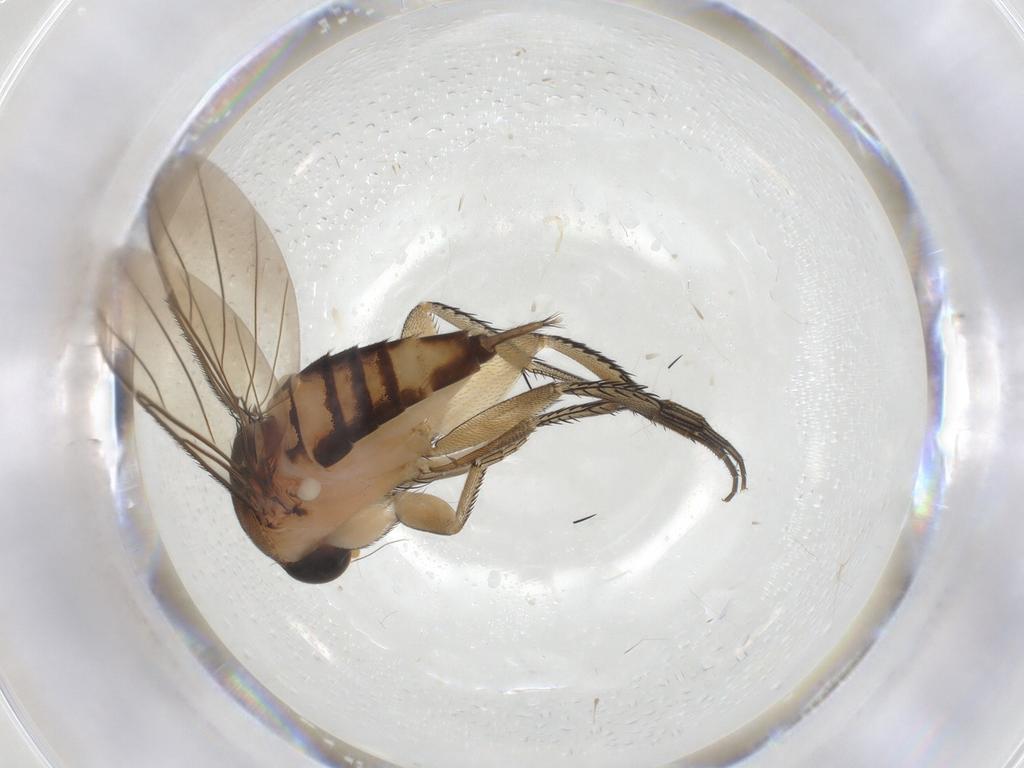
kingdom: Animalia
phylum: Arthropoda
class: Insecta
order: Diptera
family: Phoridae
